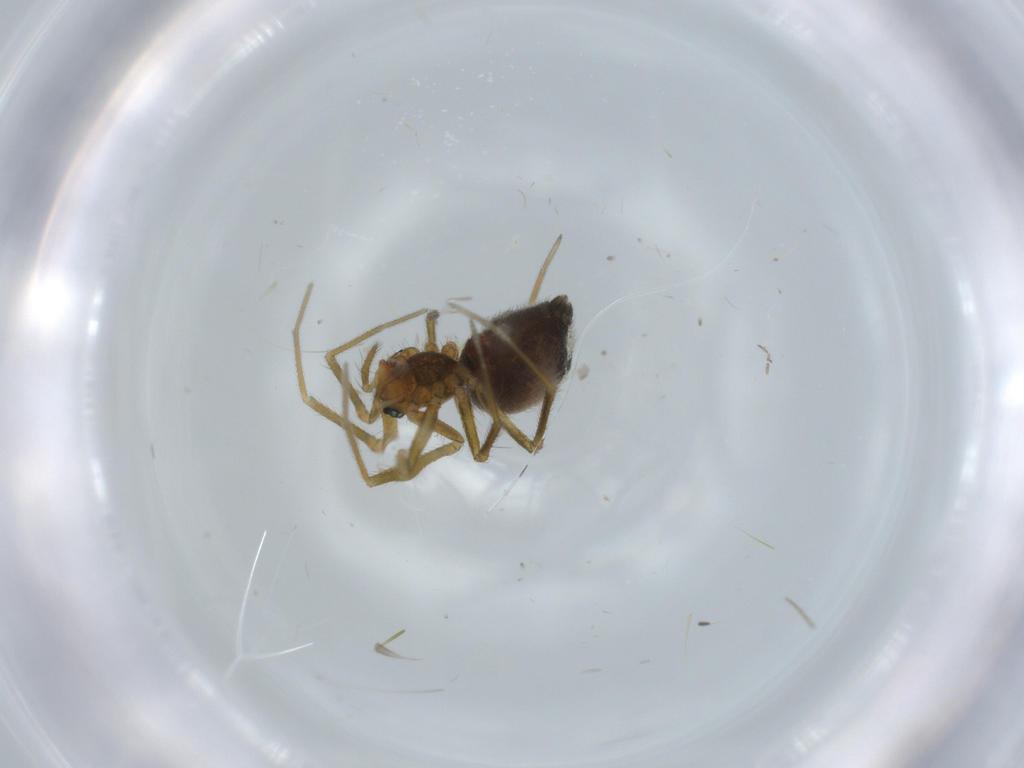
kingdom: Animalia
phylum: Arthropoda
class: Arachnida
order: Araneae
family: Linyphiidae
